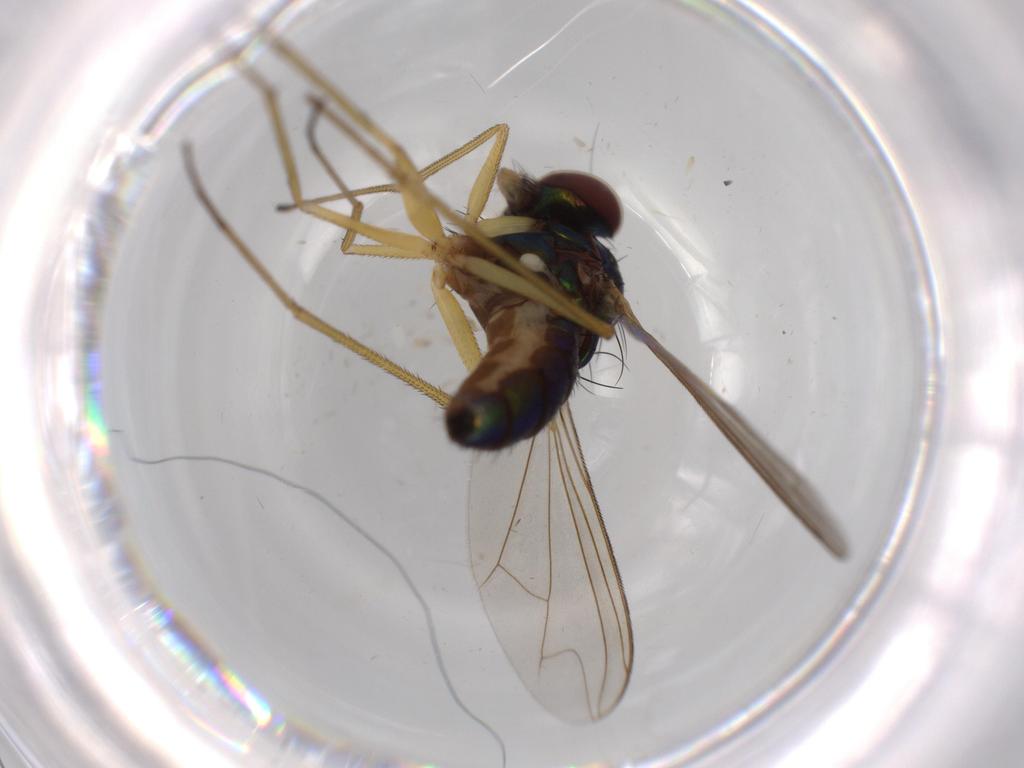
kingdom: Animalia
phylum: Arthropoda
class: Insecta
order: Diptera
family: Chironomidae
